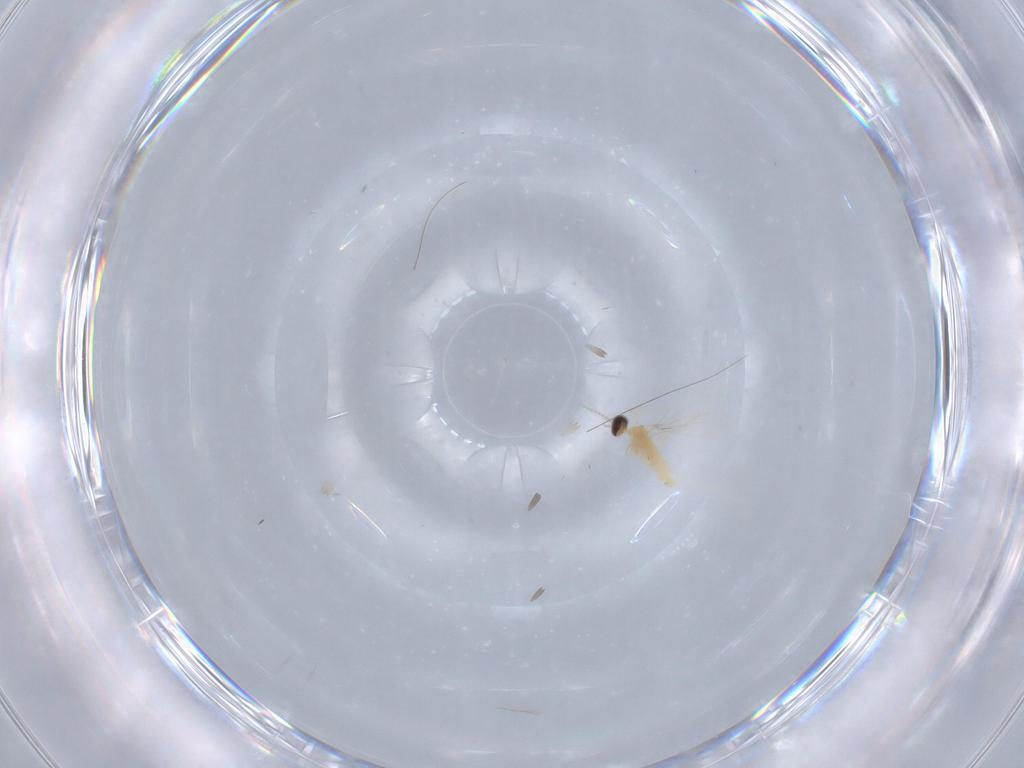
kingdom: Animalia
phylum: Arthropoda
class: Insecta
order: Diptera
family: Cecidomyiidae
